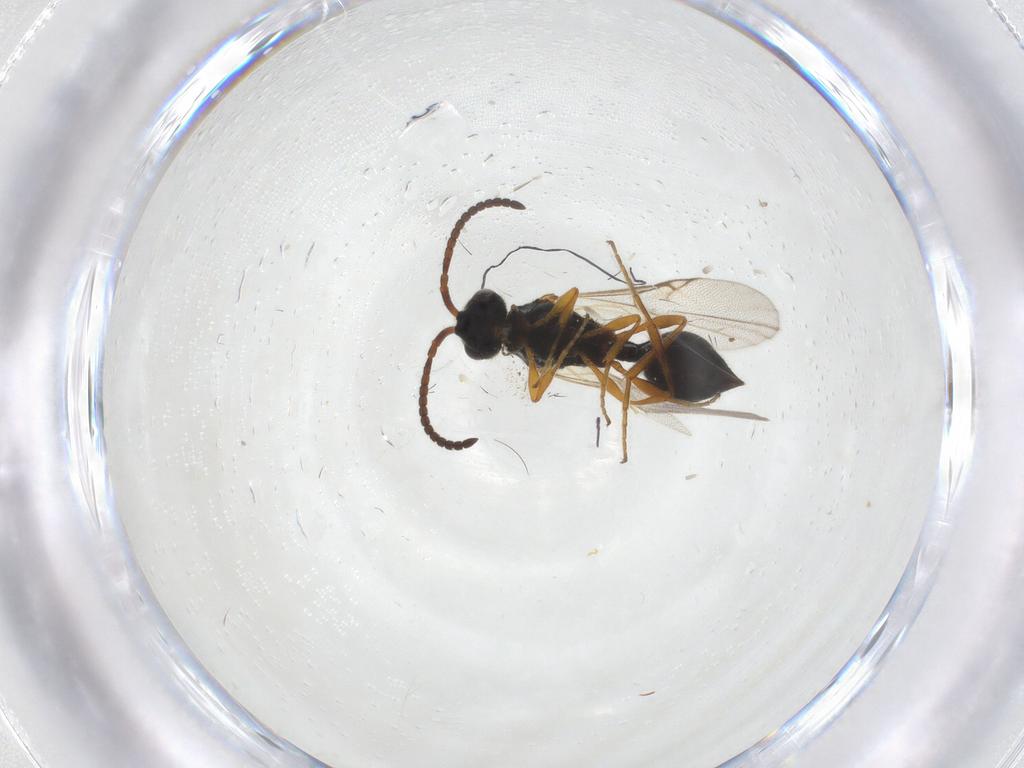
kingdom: Animalia
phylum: Arthropoda
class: Insecta
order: Hymenoptera
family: Diapriidae
